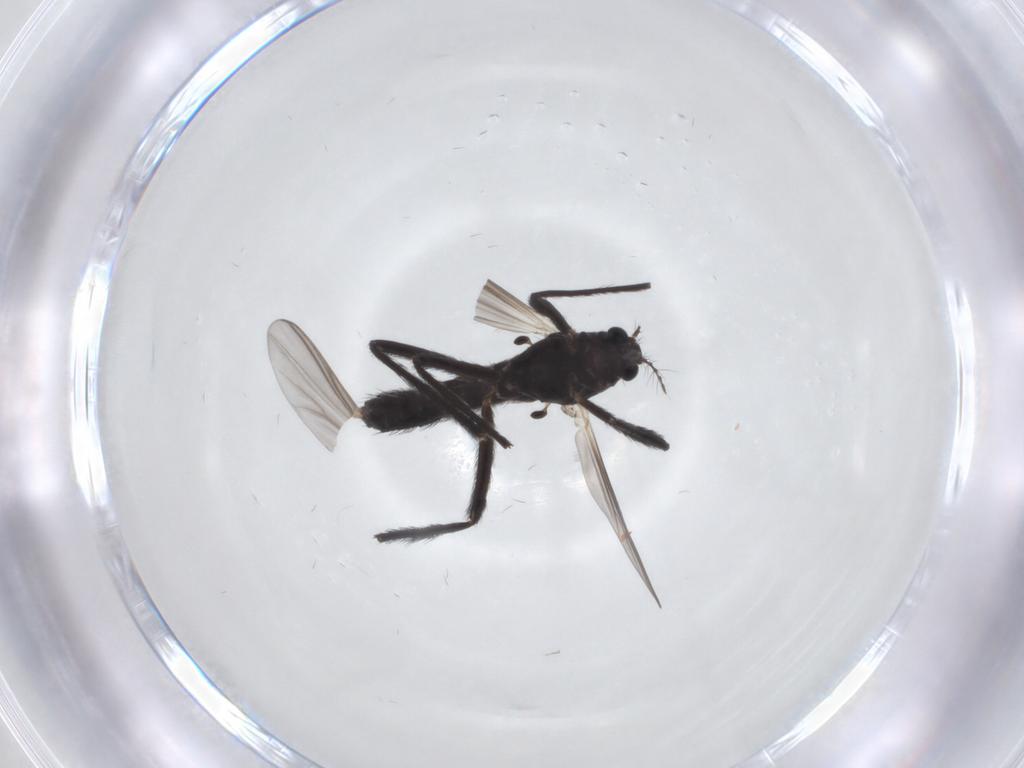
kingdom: Animalia
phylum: Arthropoda
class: Insecta
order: Diptera
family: Chironomidae
